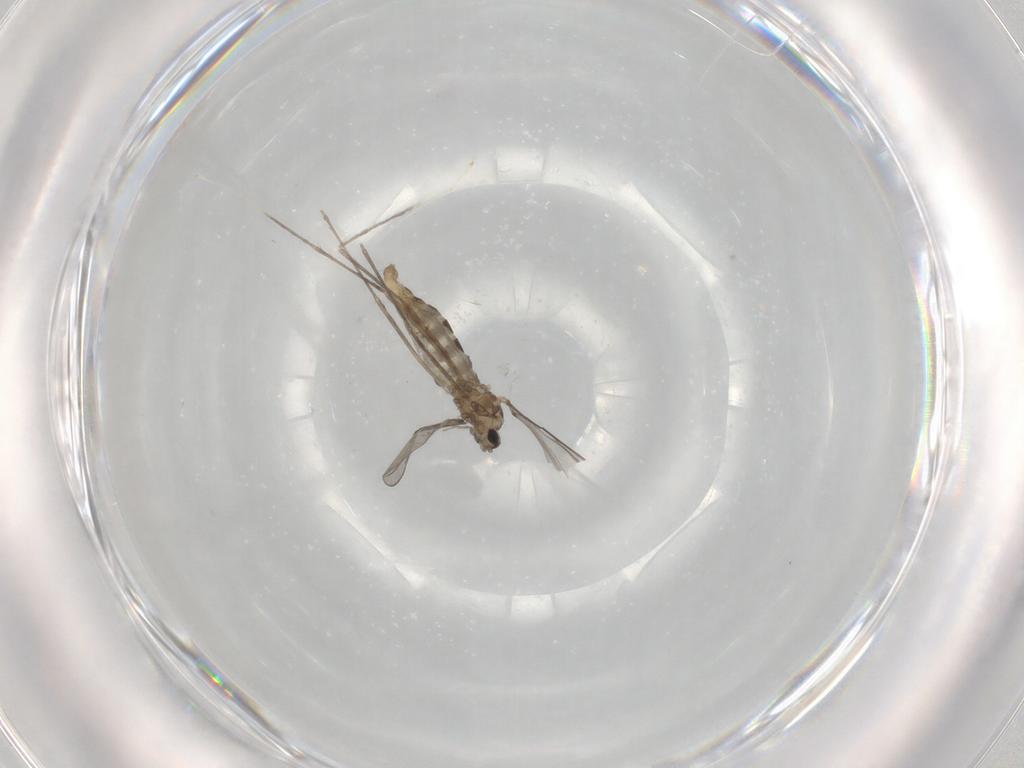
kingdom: Animalia
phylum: Arthropoda
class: Insecta
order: Diptera
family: Cecidomyiidae
